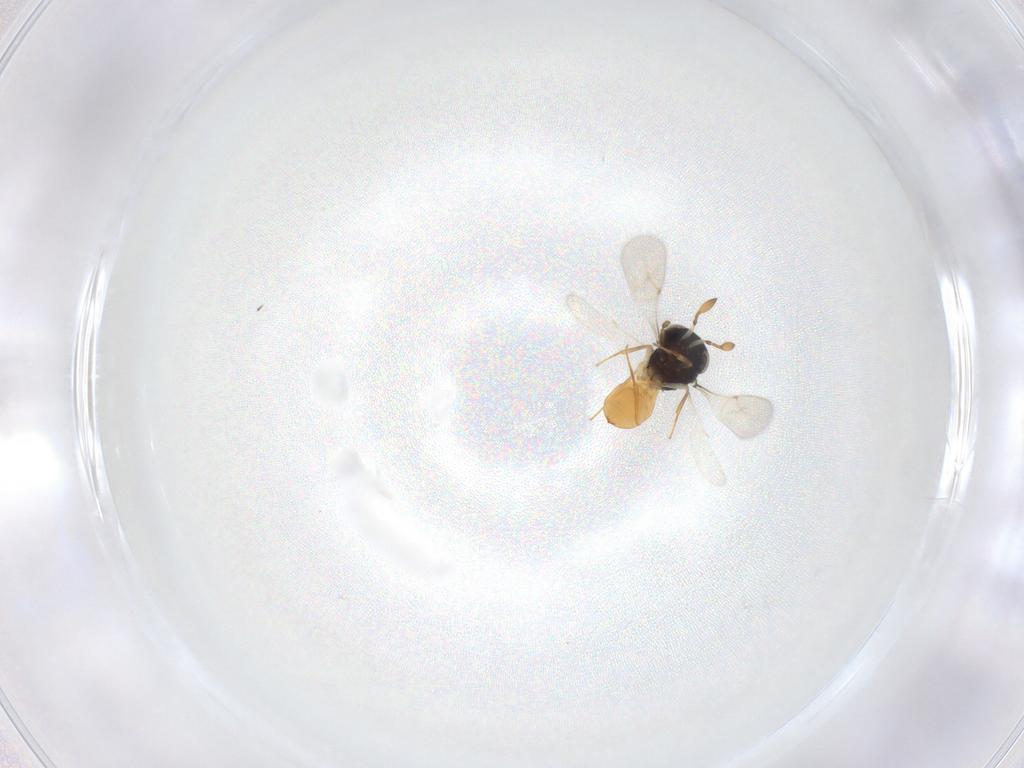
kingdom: Animalia
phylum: Arthropoda
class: Insecta
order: Hymenoptera
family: Scelionidae
